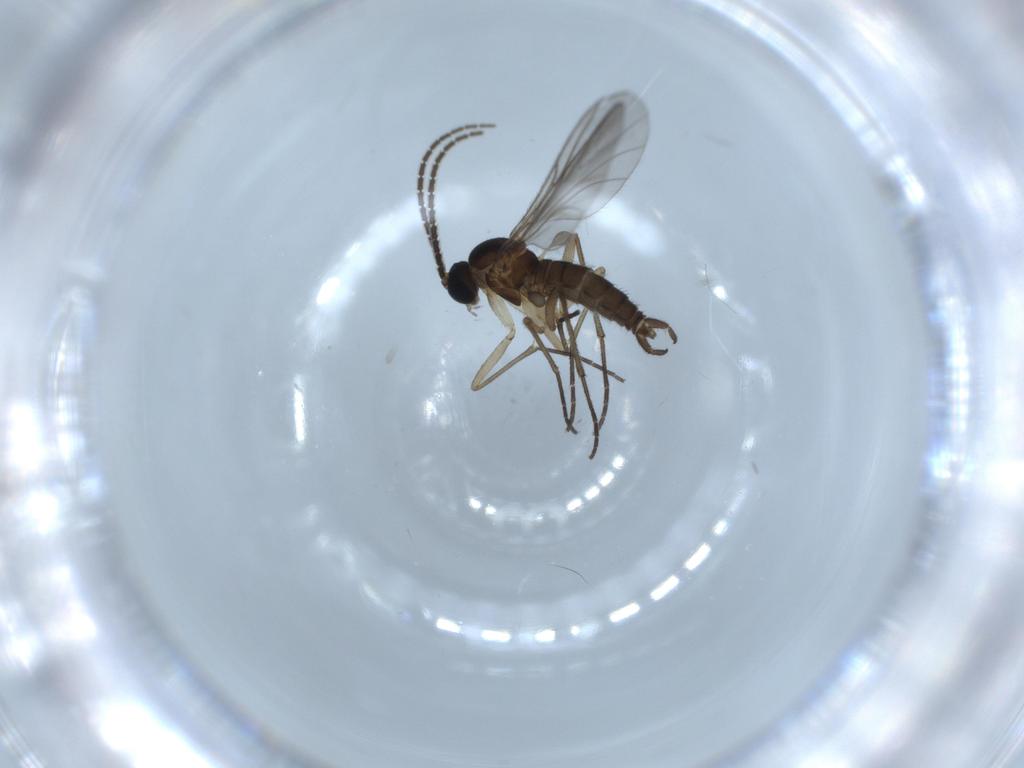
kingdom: Animalia
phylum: Arthropoda
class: Insecta
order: Diptera
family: Sciaridae
